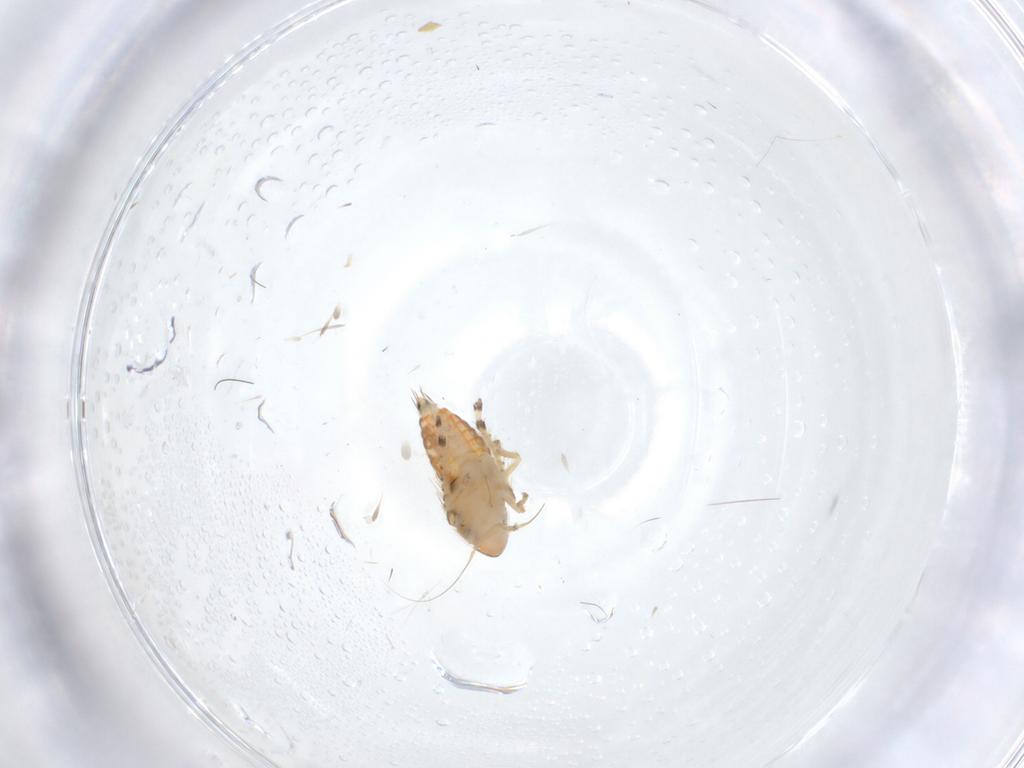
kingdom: Animalia
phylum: Arthropoda
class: Insecta
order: Hemiptera
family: Cicadellidae
